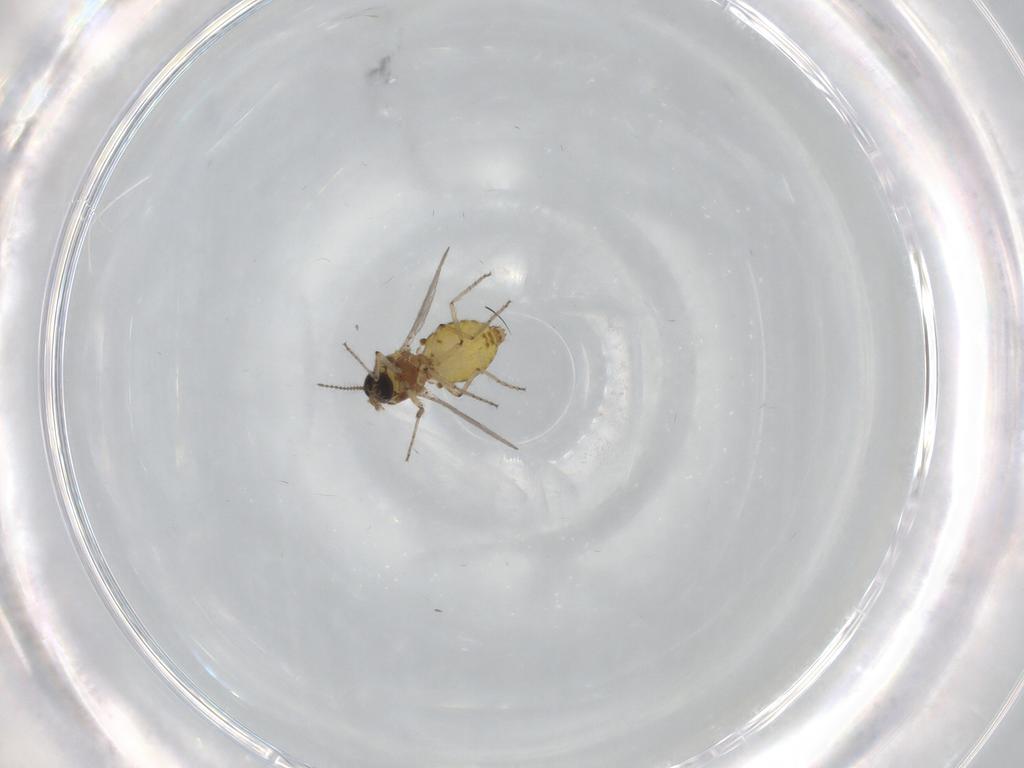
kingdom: Animalia
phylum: Arthropoda
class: Insecta
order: Diptera
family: Ceratopogonidae
